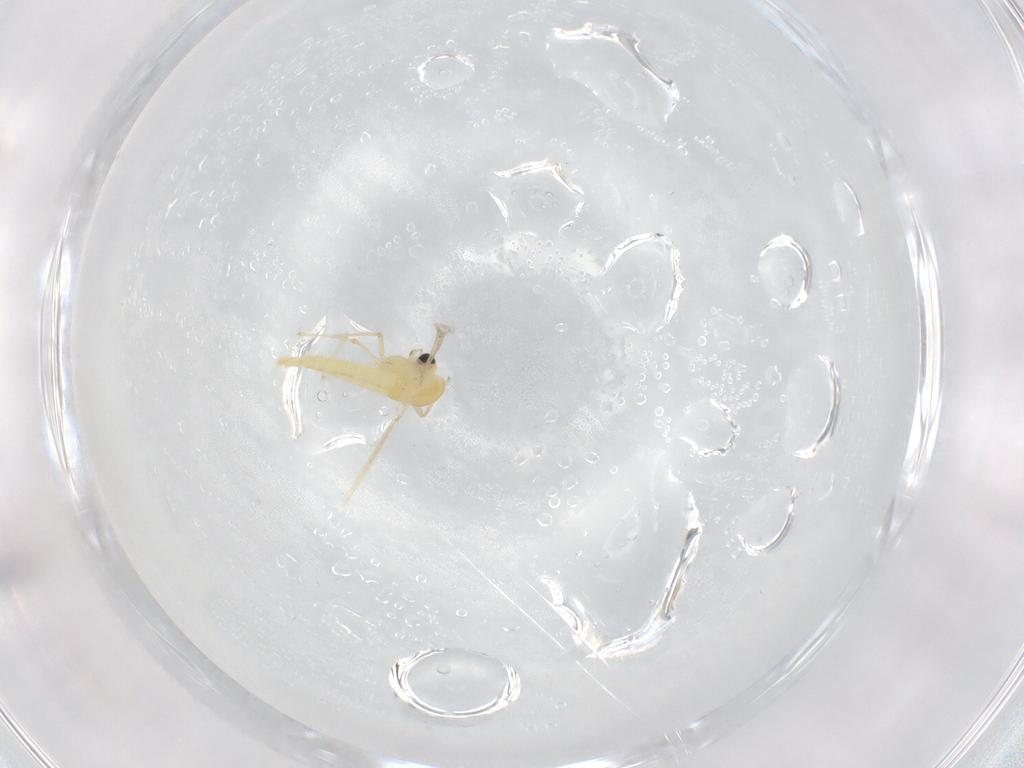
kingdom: Animalia
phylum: Arthropoda
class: Insecta
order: Diptera
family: Chironomidae
